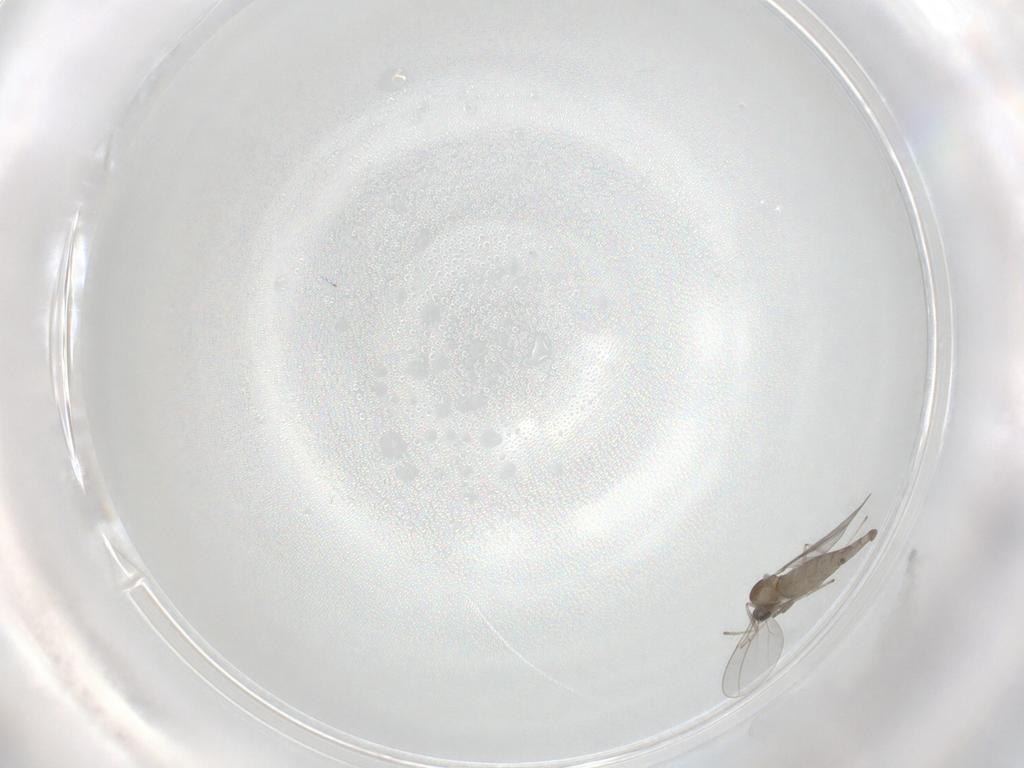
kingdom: Animalia
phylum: Arthropoda
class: Insecta
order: Diptera
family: Cecidomyiidae
